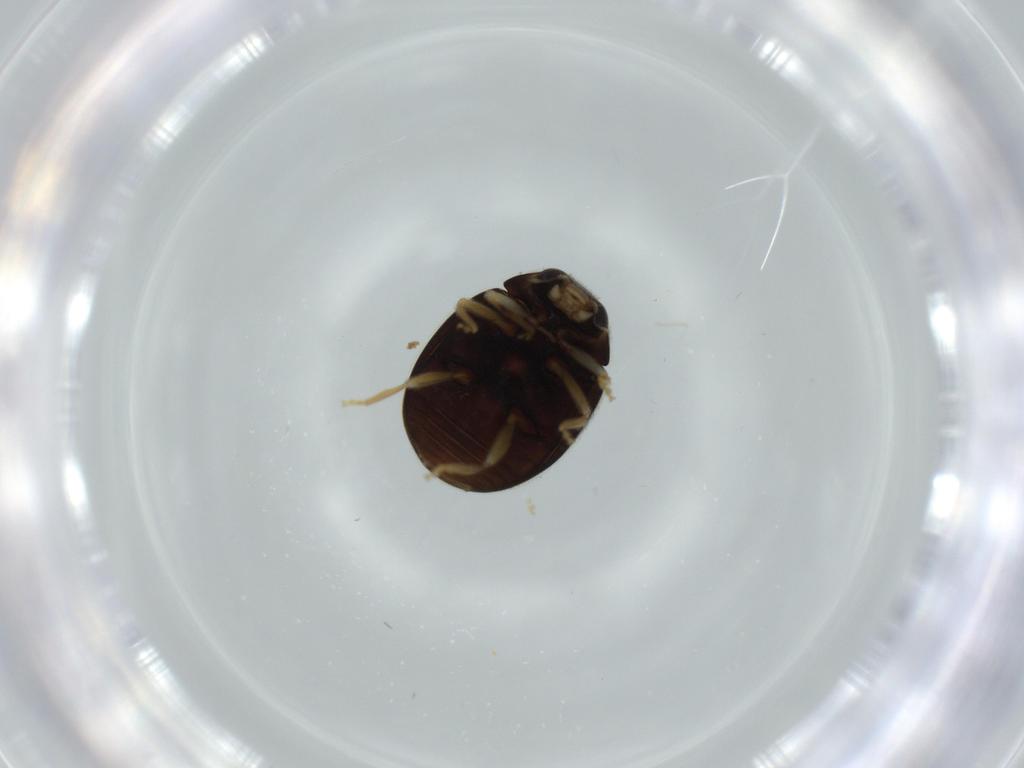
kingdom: Animalia
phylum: Arthropoda
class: Insecta
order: Coleoptera
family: Coccinellidae
